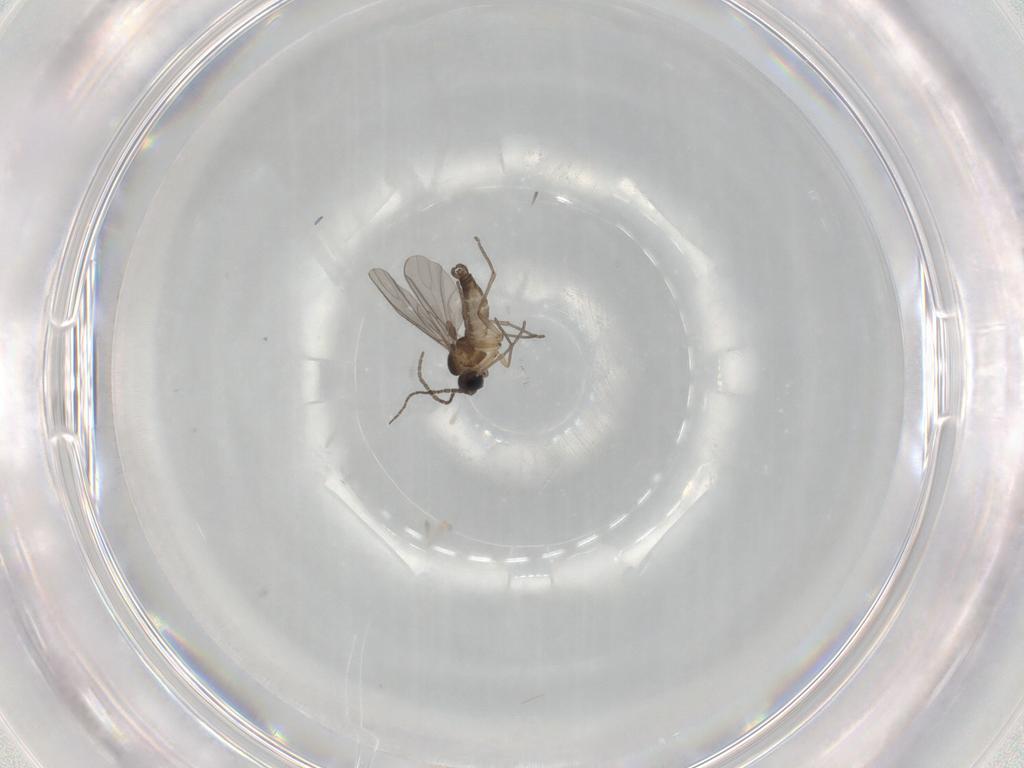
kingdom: Animalia
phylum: Arthropoda
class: Insecta
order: Diptera
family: Sciaridae
